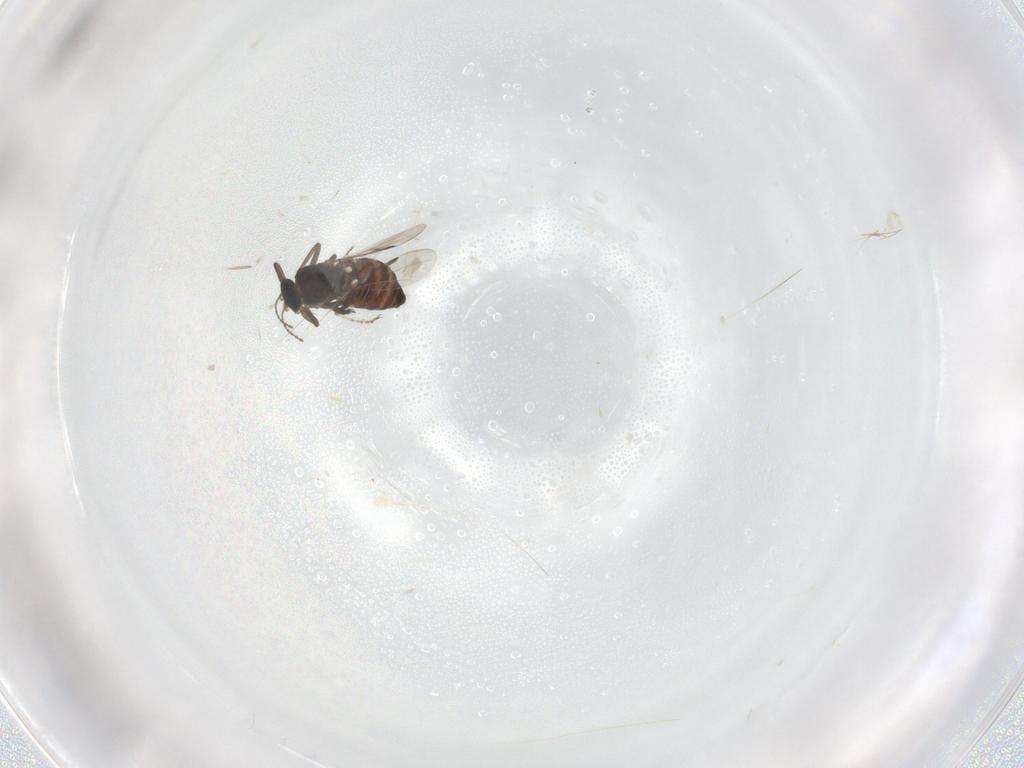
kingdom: Animalia
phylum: Arthropoda
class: Insecta
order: Diptera
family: Ceratopogonidae
